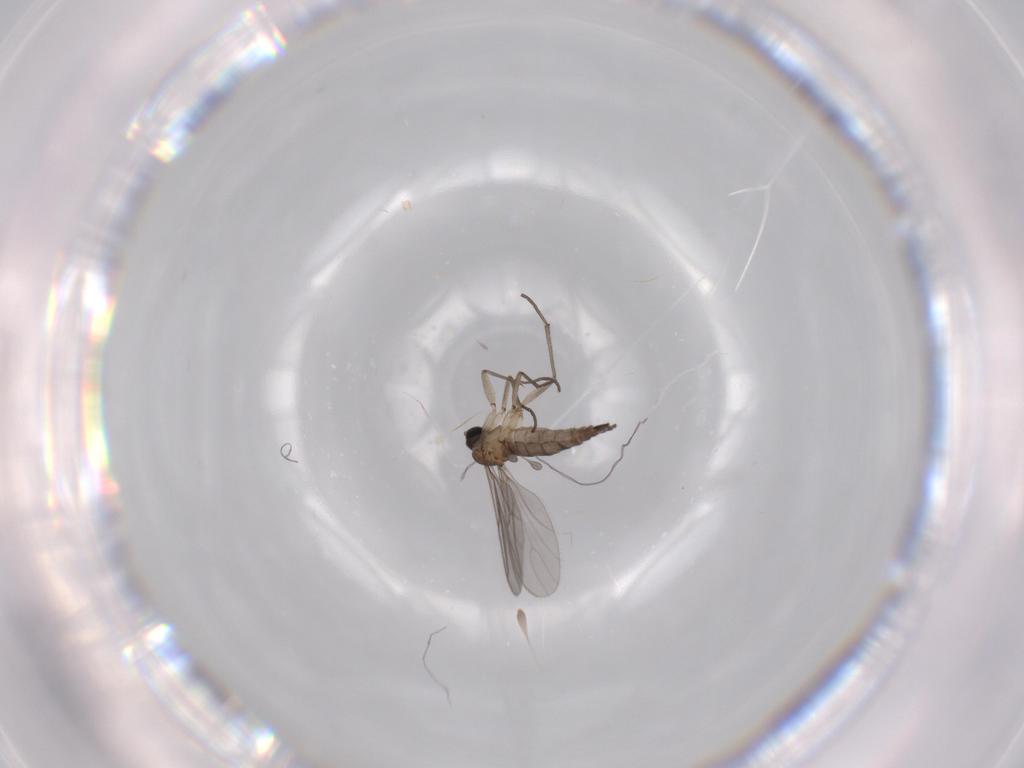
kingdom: Animalia
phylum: Arthropoda
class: Insecta
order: Diptera
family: Sciaridae
